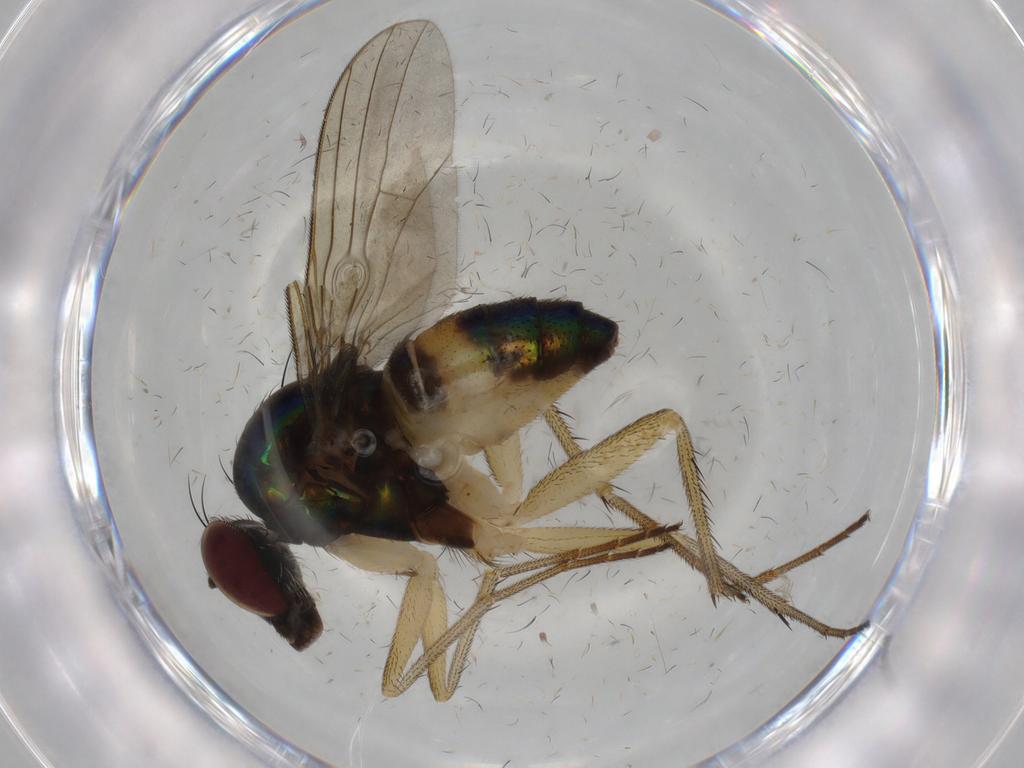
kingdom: Animalia
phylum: Arthropoda
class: Insecta
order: Diptera
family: Dolichopodidae
